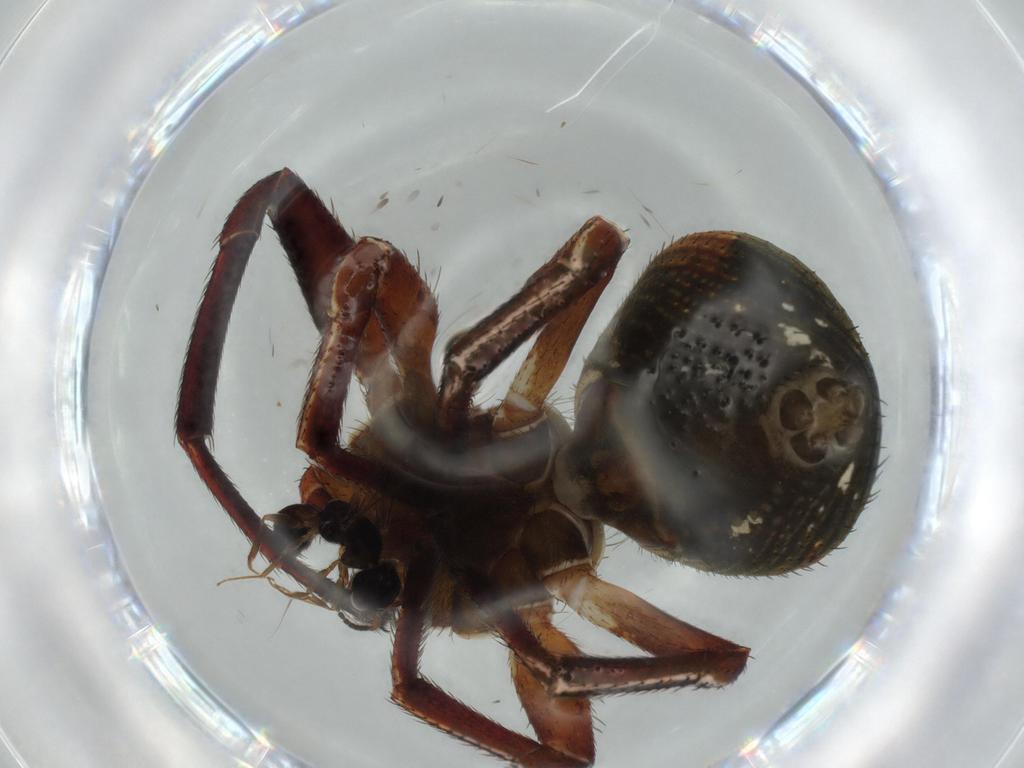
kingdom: Animalia
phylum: Arthropoda
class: Arachnida
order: Araneae
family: Thomisidae
